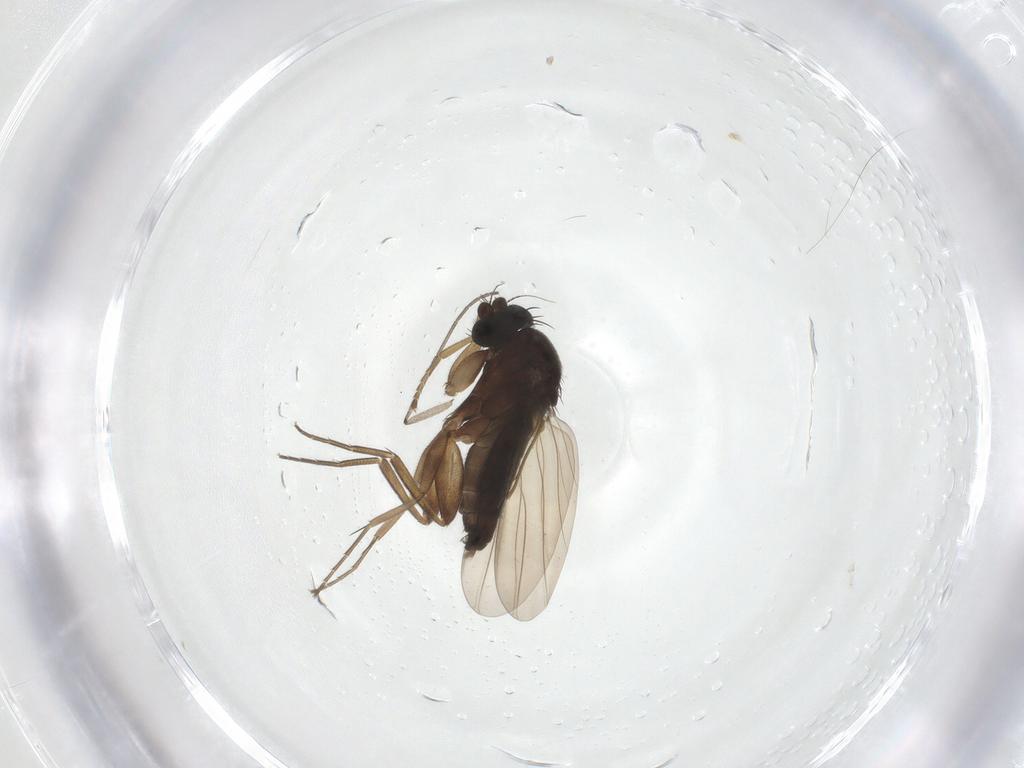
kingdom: Animalia
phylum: Arthropoda
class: Insecta
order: Diptera
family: Phoridae
